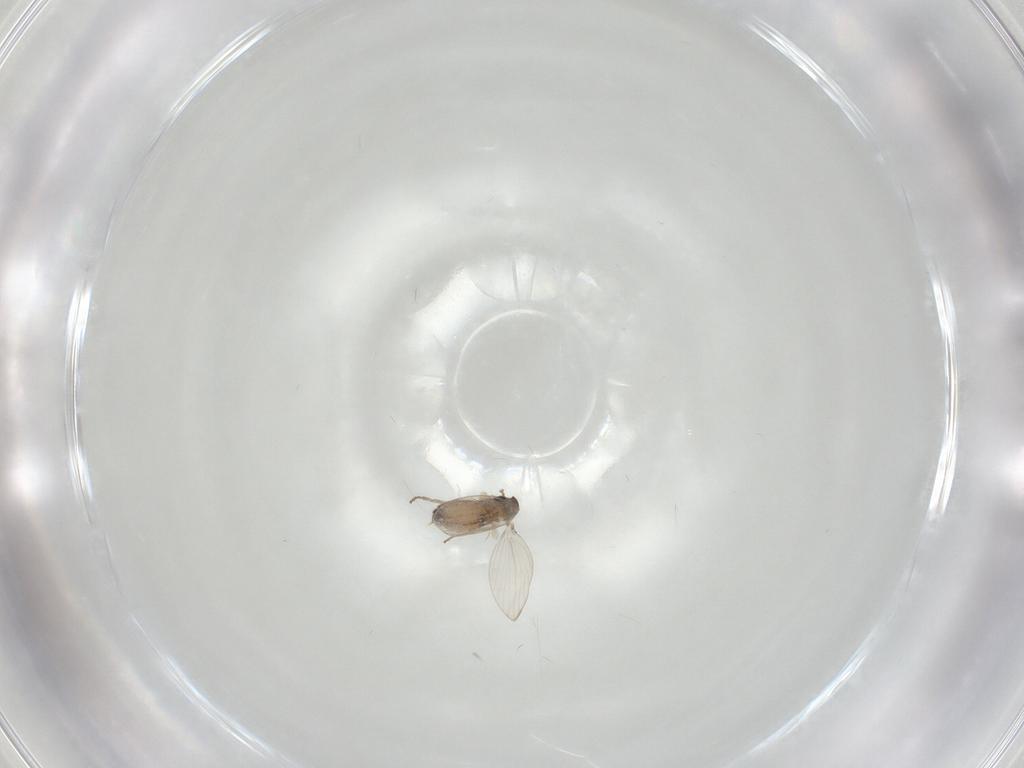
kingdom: Animalia
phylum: Arthropoda
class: Insecta
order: Diptera
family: Psychodidae
